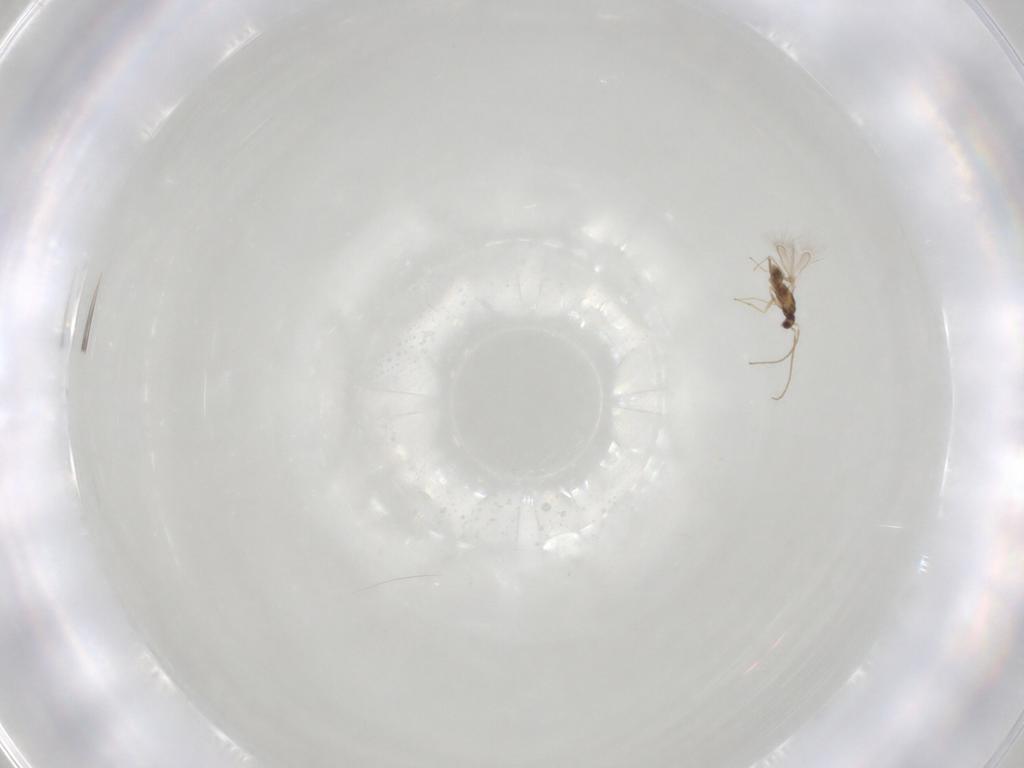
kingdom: Animalia
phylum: Arthropoda
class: Insecta
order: Hymenoptera
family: Mymaridae
